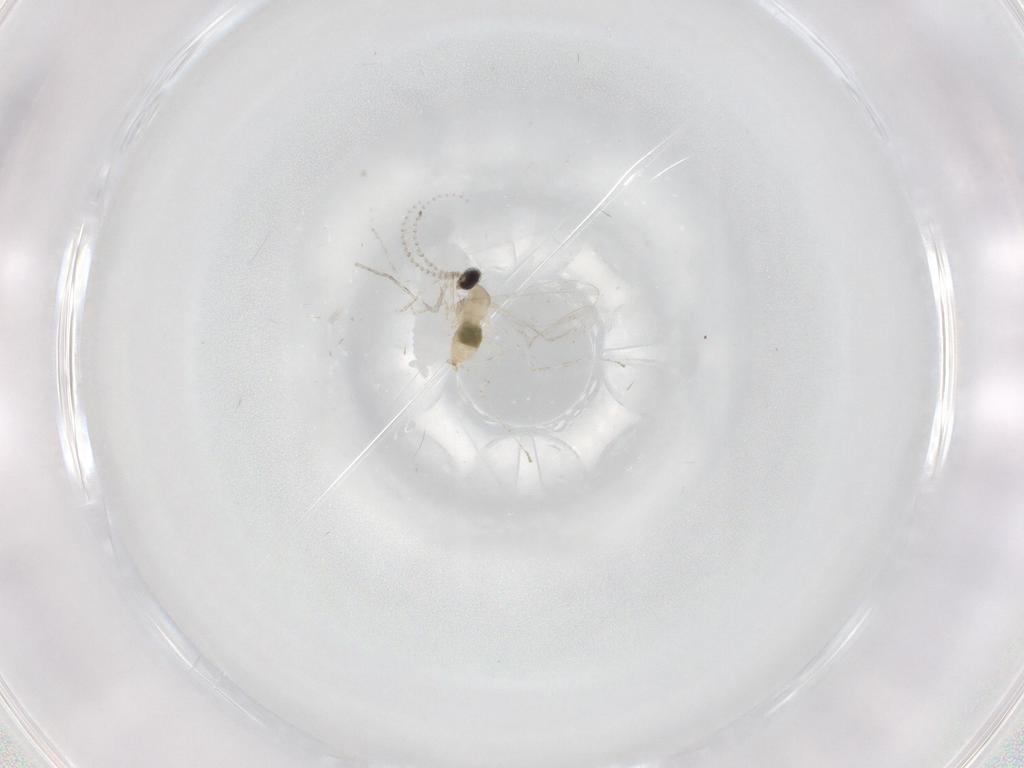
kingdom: Animalia
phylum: Arthropoda
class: Insecta
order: Diptera
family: Cecidomyiidae
